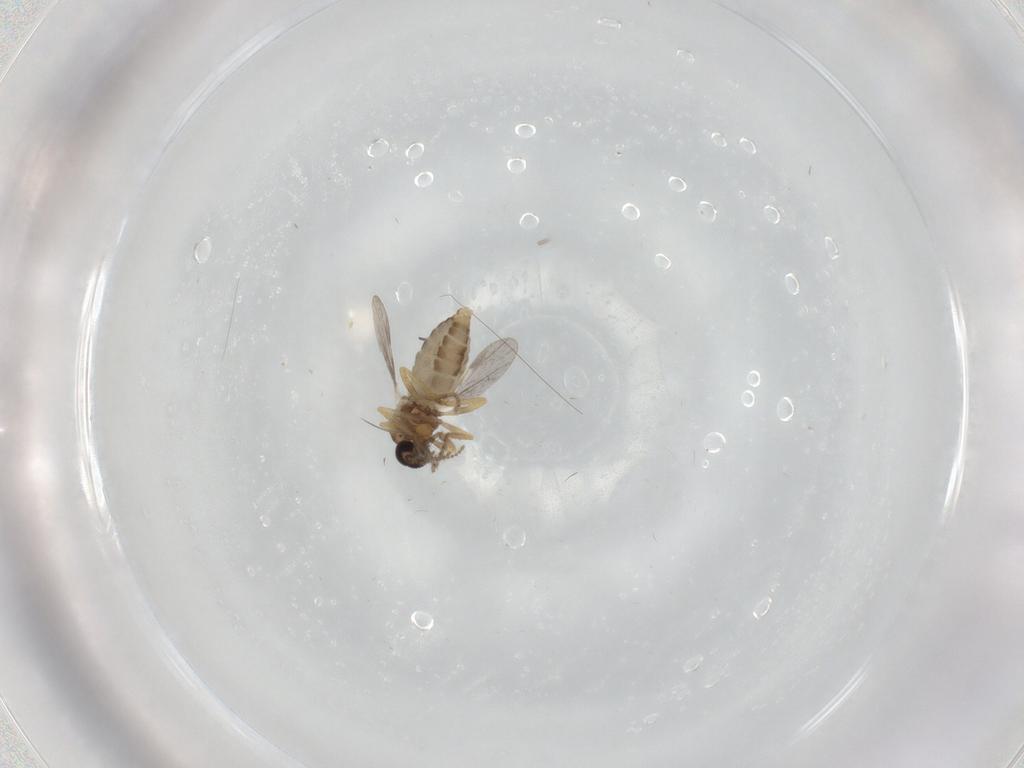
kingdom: Animalia
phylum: Arthropoda
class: Insecta
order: Diptera
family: Ceratopogonidae
